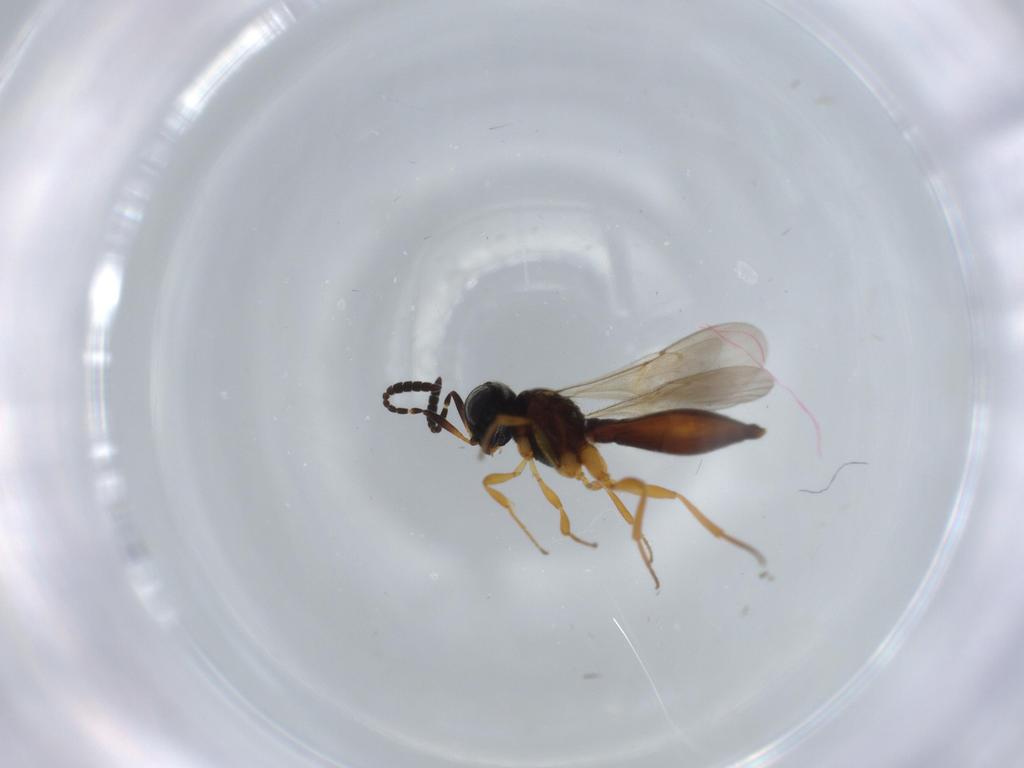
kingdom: Animalia
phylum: Arthropoda
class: Insecta
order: Hymenoptera
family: Scelionidae
